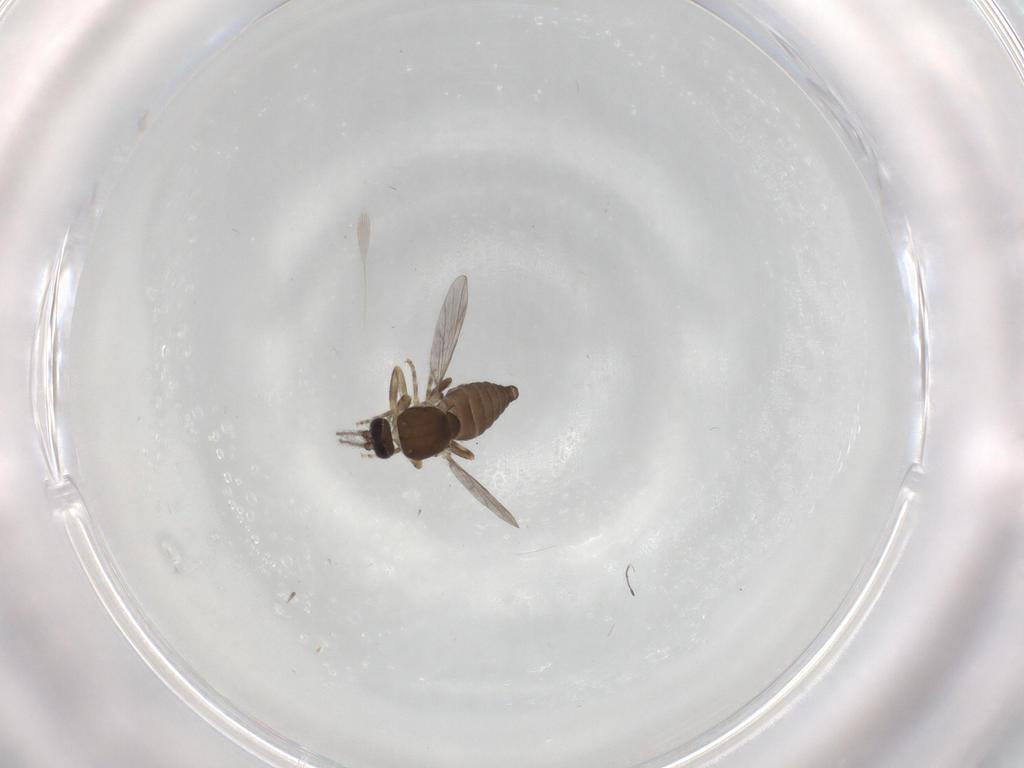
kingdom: Animalia
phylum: Arthropoda
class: Insecta
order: Diptera
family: Ceratopogonidae
